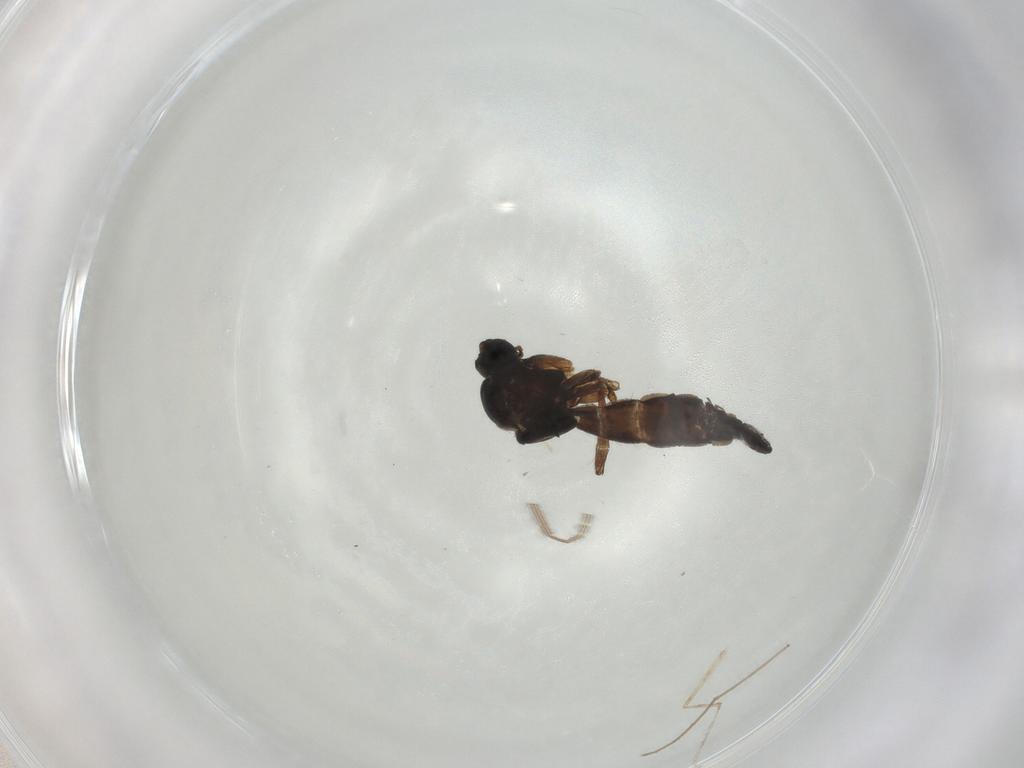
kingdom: Animalia
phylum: Arthropoda
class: Insecta
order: Diptera
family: Sciaridae
